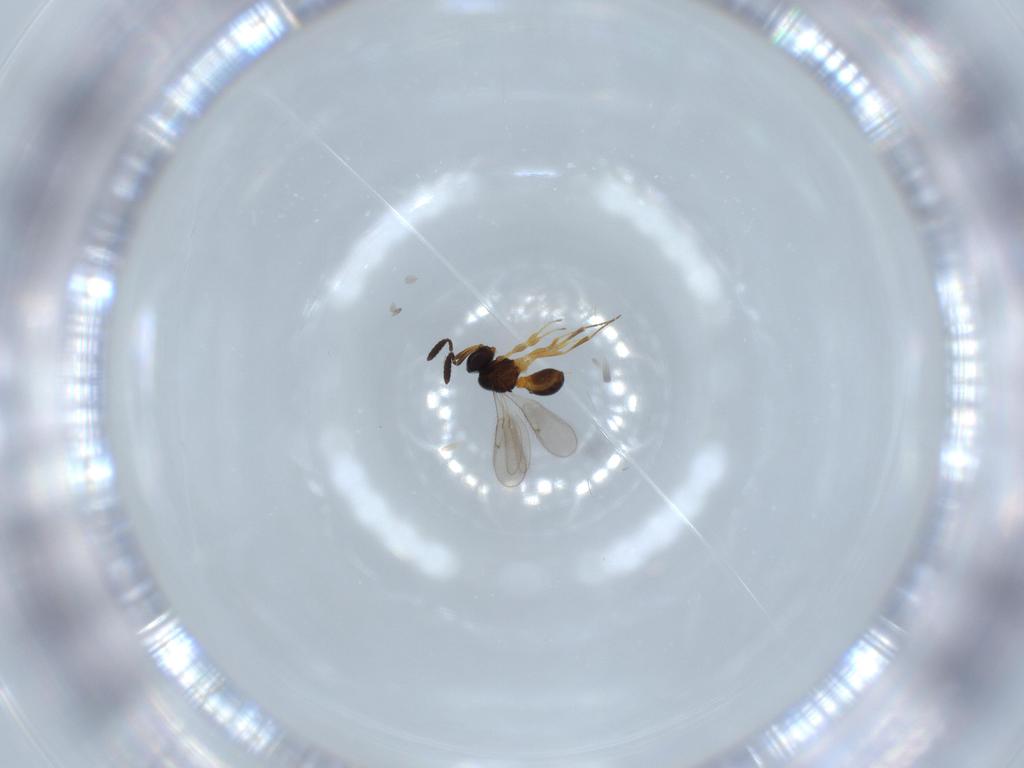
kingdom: Animalia
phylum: Arthropoda
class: Insecta
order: Hymenoptera
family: Scelionidae
